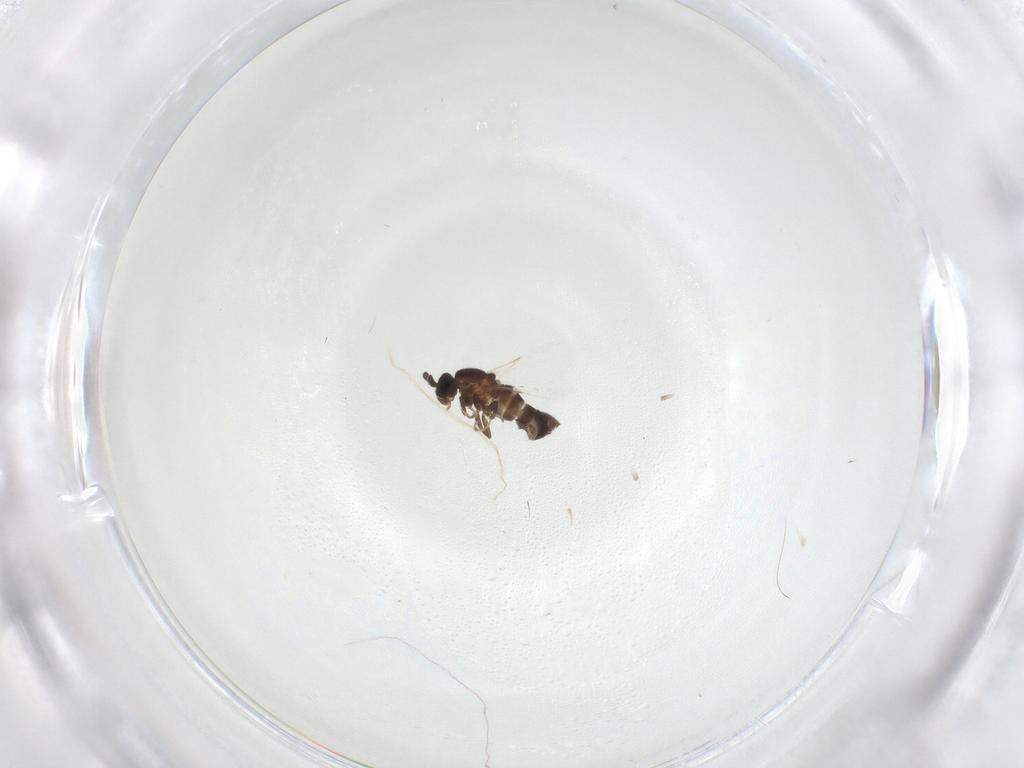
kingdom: Animalia
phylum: Arthropoda
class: Insecta
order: Diptera
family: Scatopsidae
